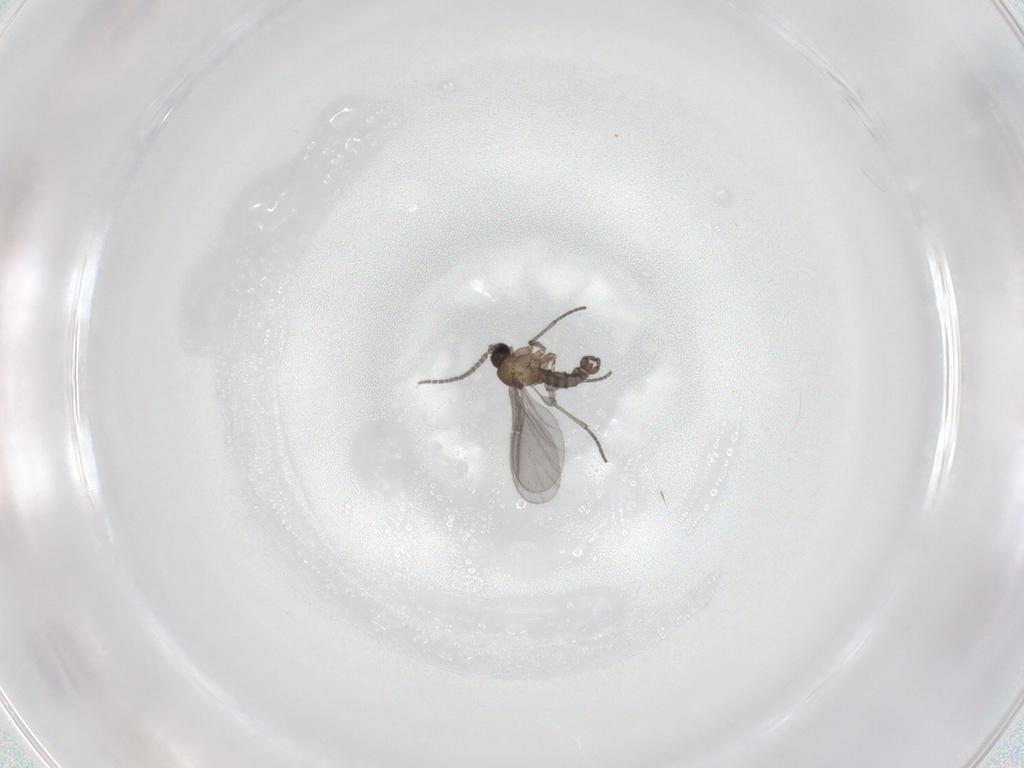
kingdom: Animalia
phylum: Arthropoda
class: Insecta
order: Diptera
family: Sciaridae
